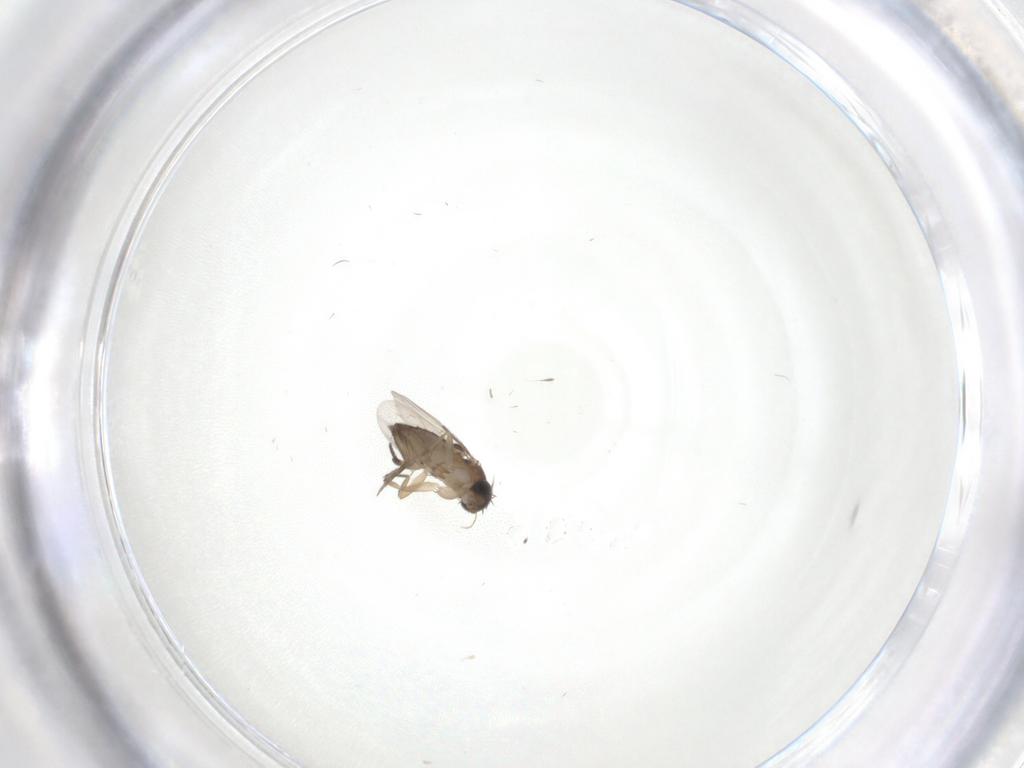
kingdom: Animalia
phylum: Arthropoda
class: Insecta
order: Diptera
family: Phoridae
